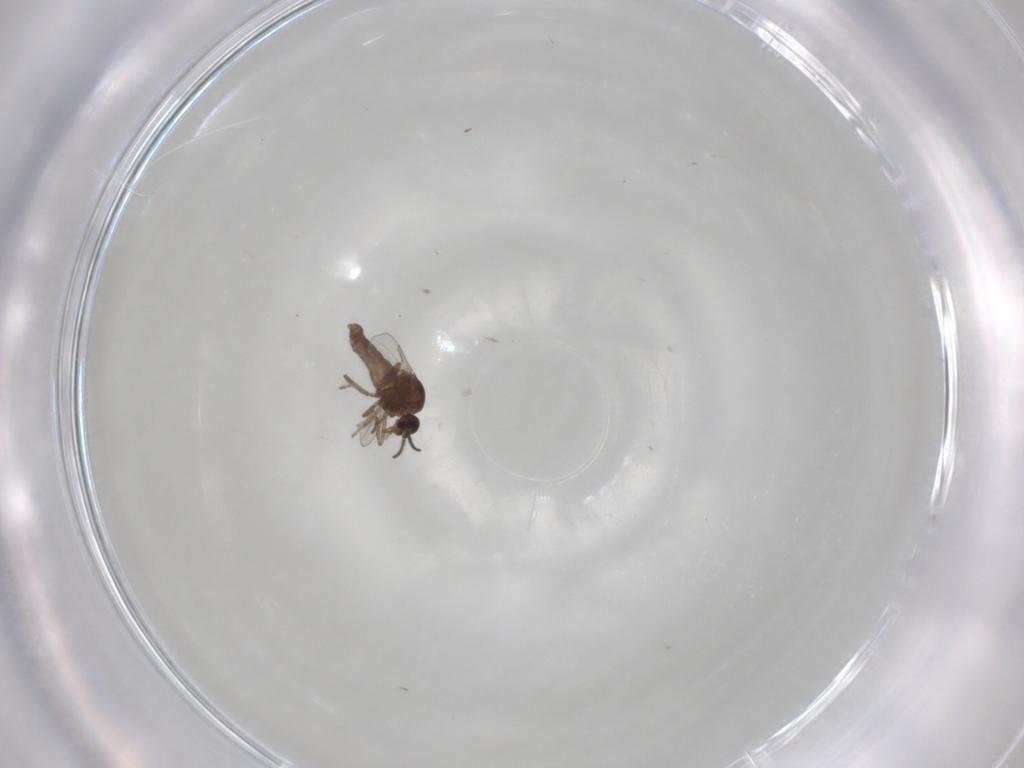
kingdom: Animalia
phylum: Arthropoda
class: Insecta
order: Diptera
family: Ceratopogonidae
